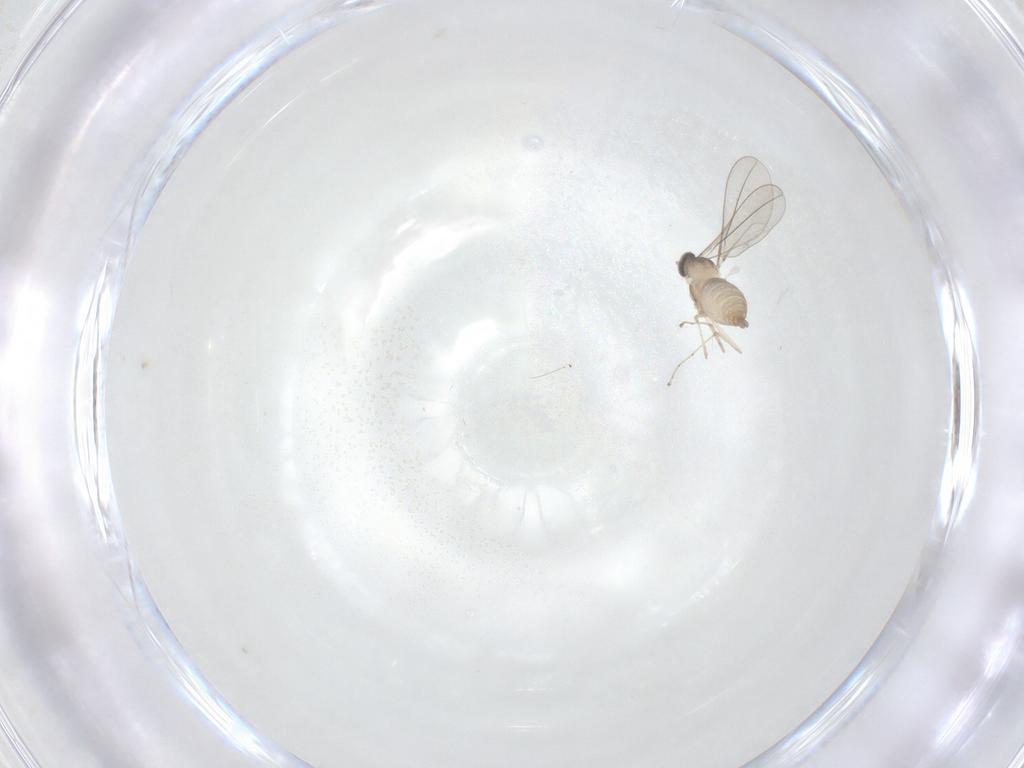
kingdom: Animalia
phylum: Arthropoda
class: Insecta
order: Diptera
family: Cecidomyiidae
